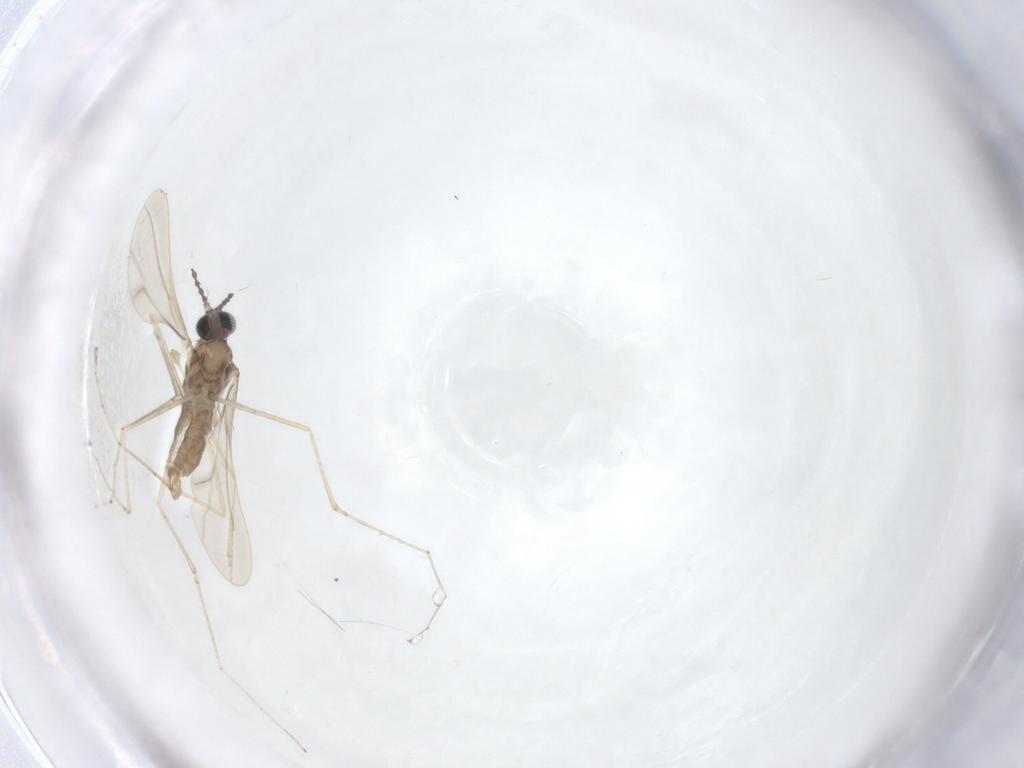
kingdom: Animalia
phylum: Arthropoda
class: Insecta
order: Diptera
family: Cecidomyiidae
